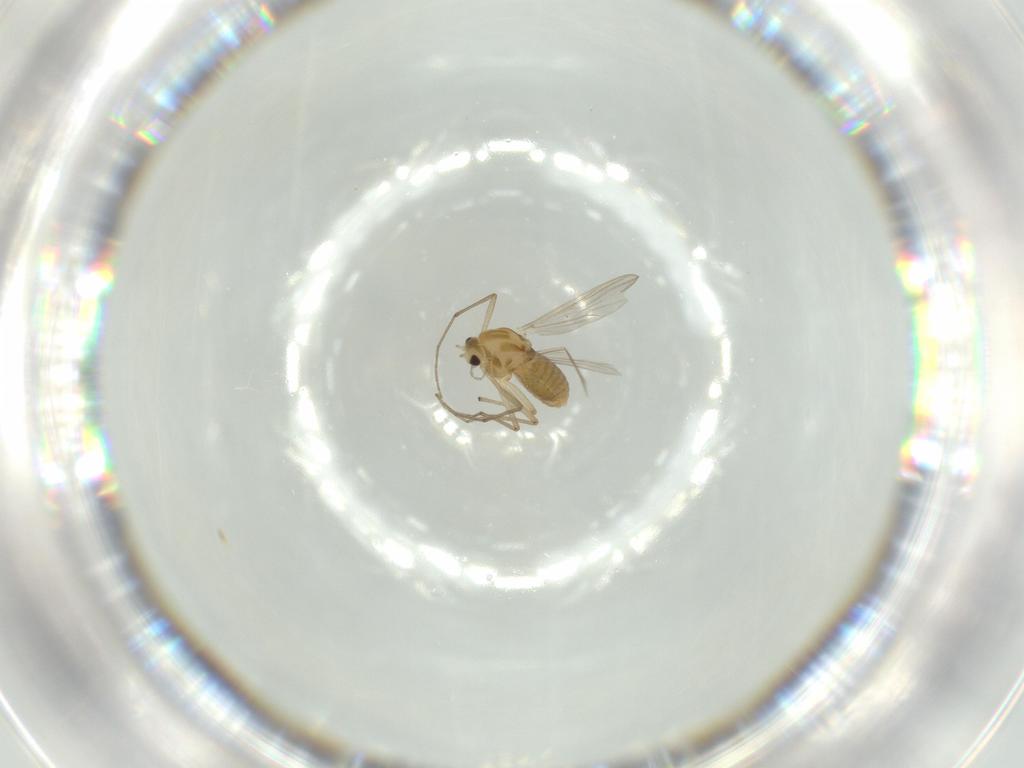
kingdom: Animalia
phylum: Arthropoda
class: Insecta
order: Diptera
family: Chironomidae
